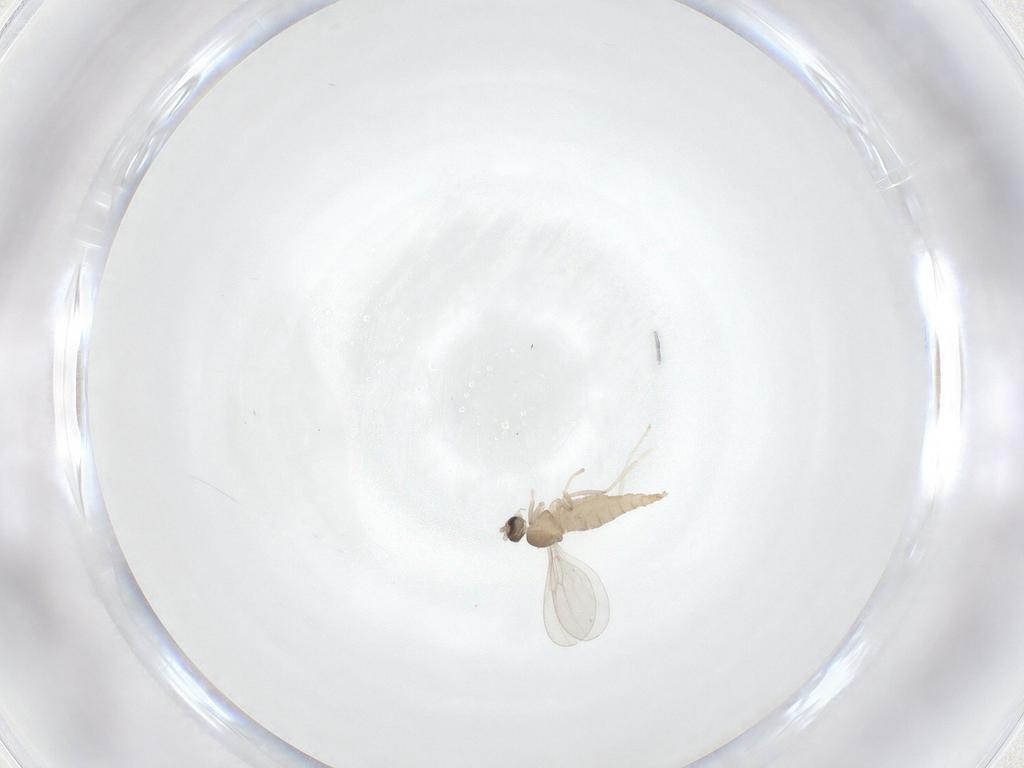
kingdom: Animalia
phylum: Arthropoda
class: Insecta
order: Diptera
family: Cecidomyiidae
